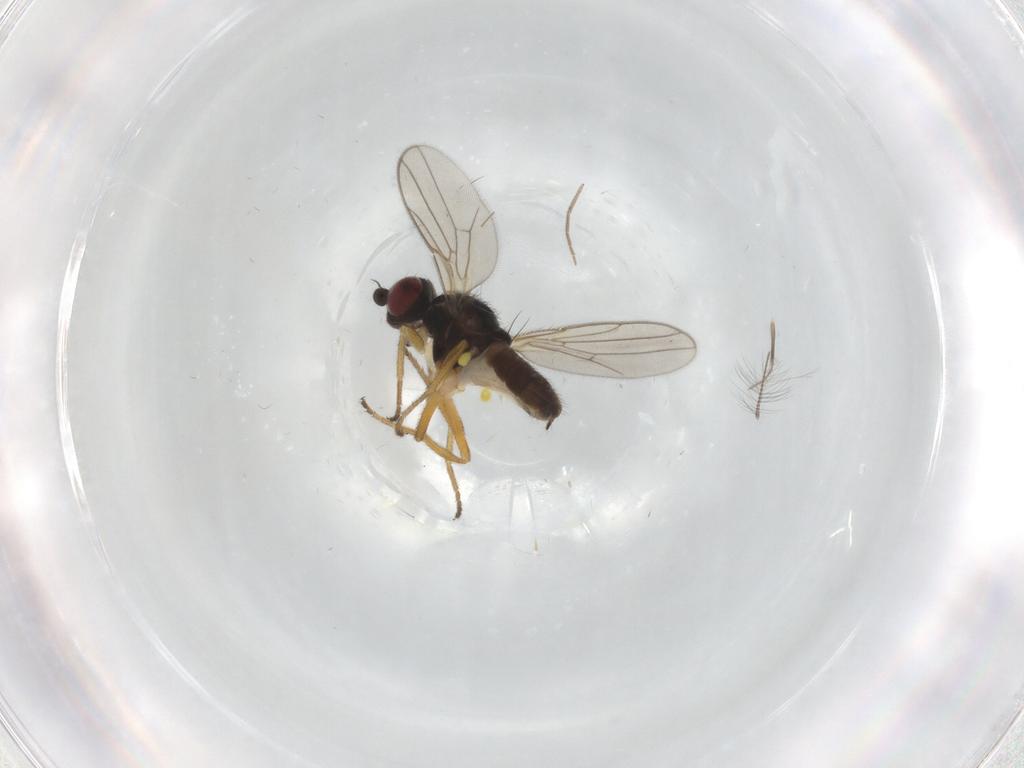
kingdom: Animalia
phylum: Arthropoda
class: Insecta
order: Diptera
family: Chloropidae
